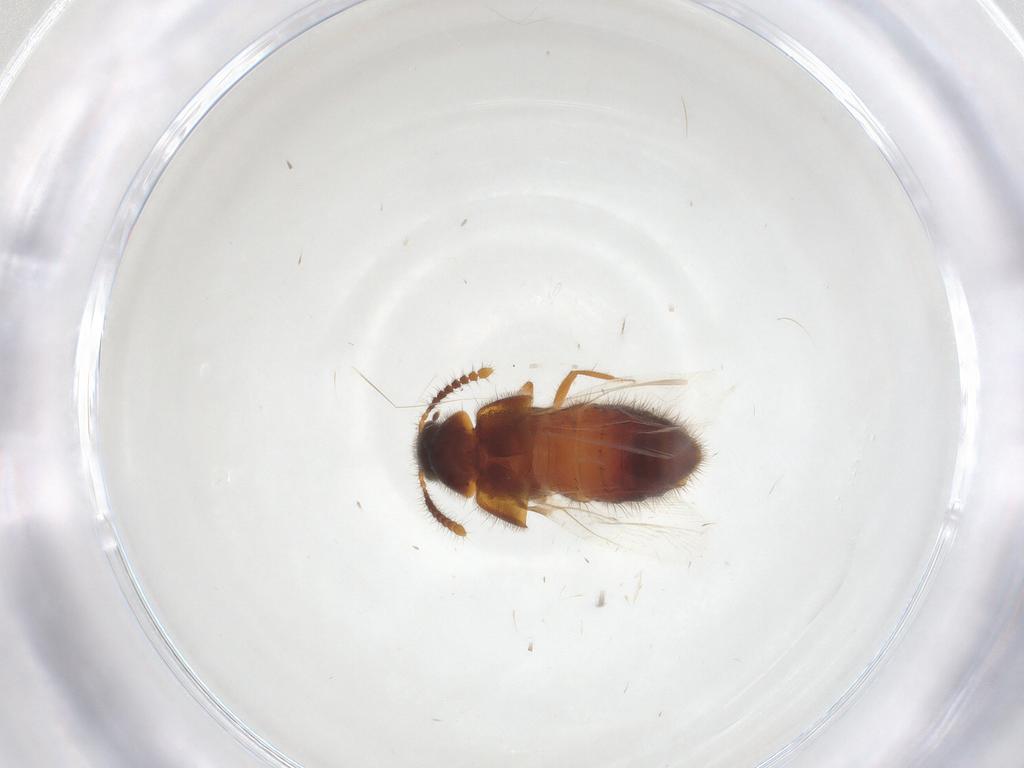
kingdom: Animalia
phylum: Arthropoda
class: Insecta
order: Coleoptera
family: Staphylinidae
